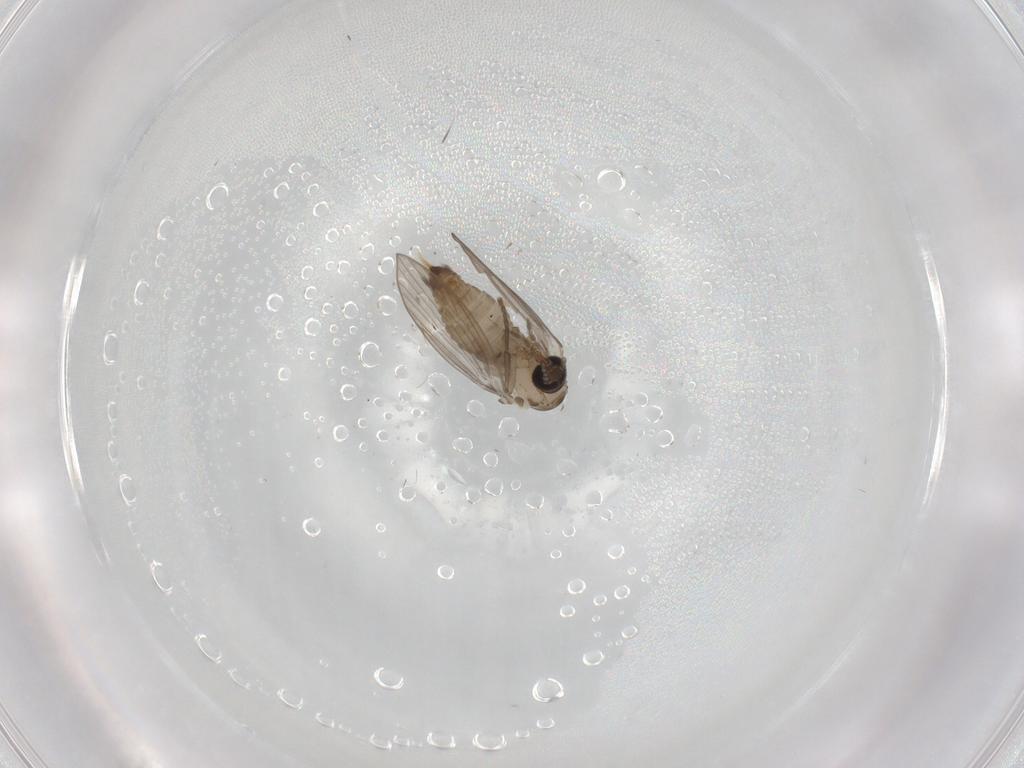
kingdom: Animalia
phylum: Arthropoda
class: Insecta
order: Diptera
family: Psychodidae
